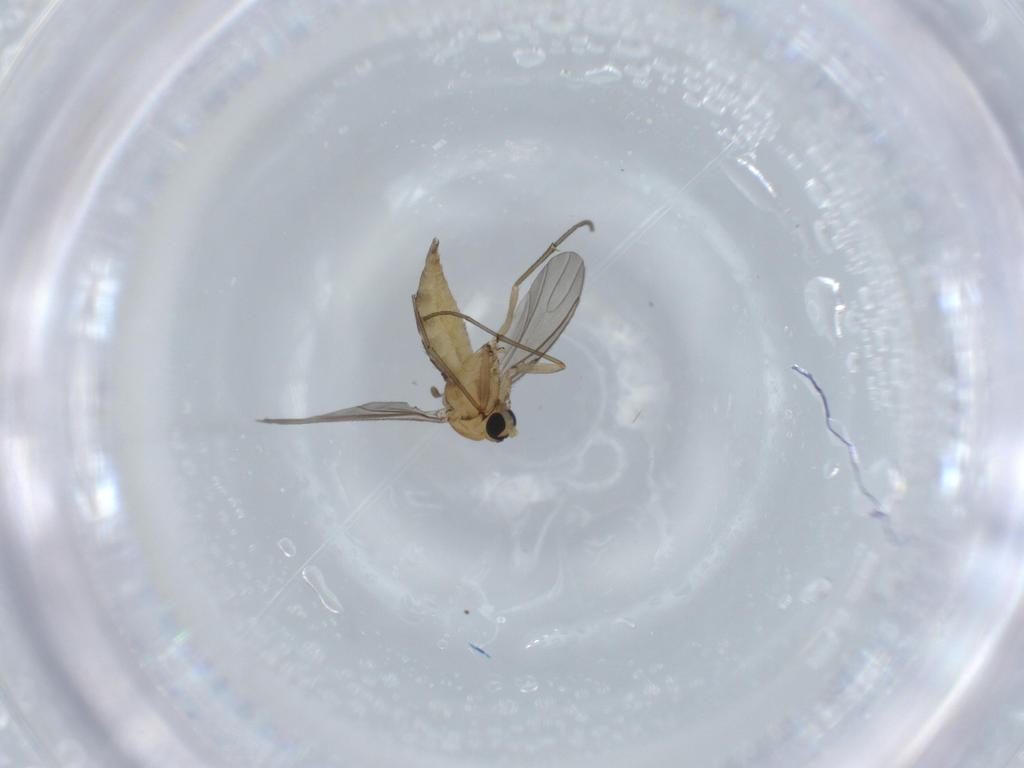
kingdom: Animalia
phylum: Arthropoda
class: Insecta
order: Diptera
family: Sciaridae
